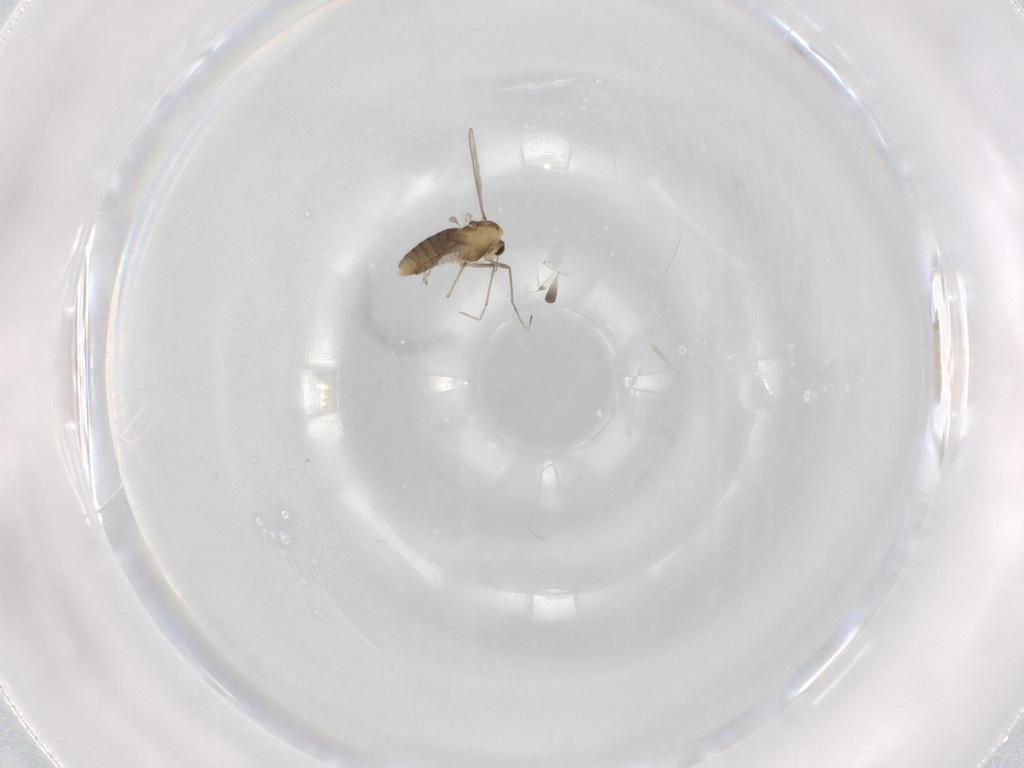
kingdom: Animalia
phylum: Arthropoda
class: Insecta
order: Diptera
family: Chironomidae
